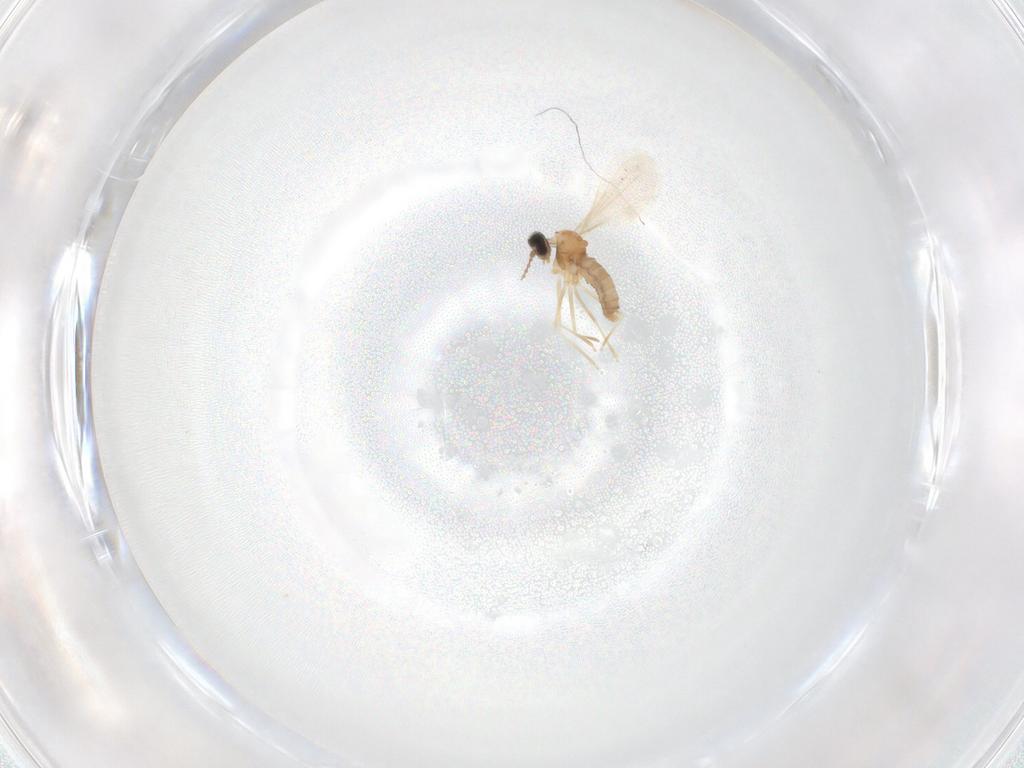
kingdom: Animalia
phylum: Arthropoda
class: Insecta
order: Diptera
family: Cecidomyiidae
